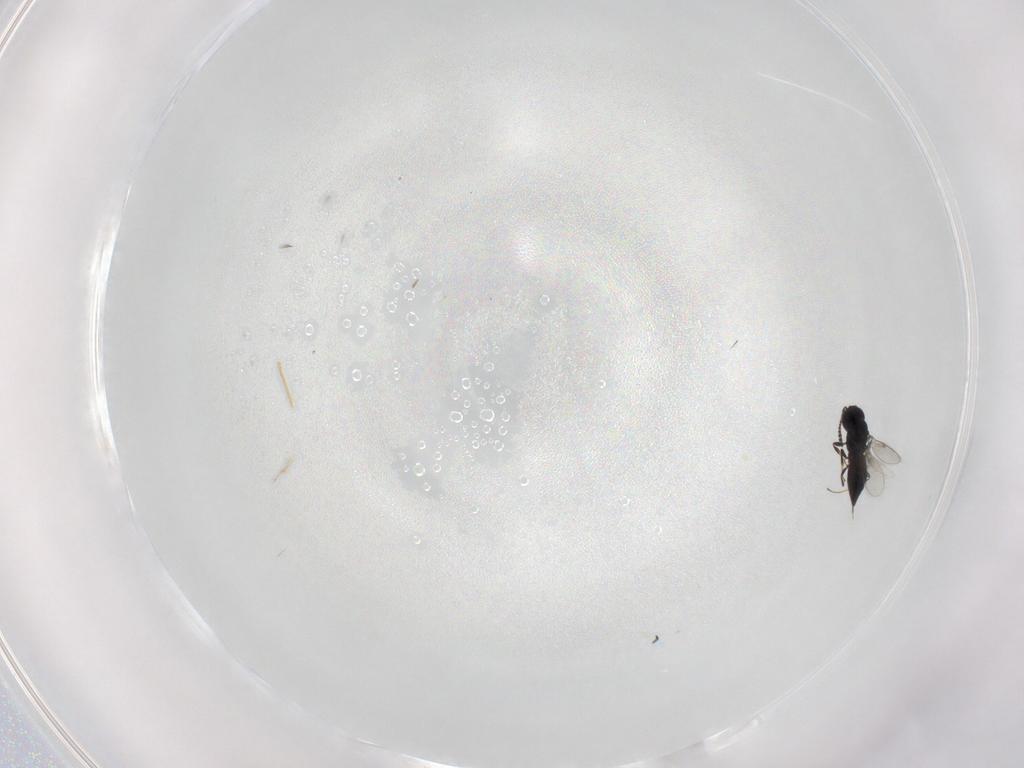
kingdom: Animalia
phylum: Arthropoda
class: Insecta
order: Hymenoptera
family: Scelionidae
